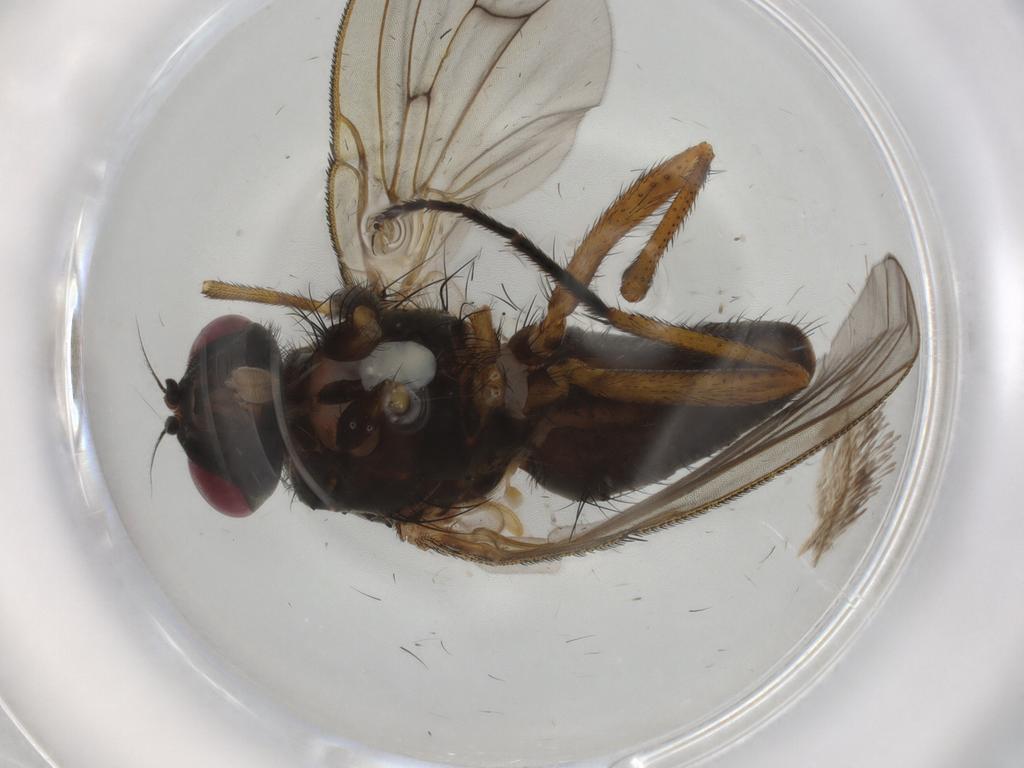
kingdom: Animalia
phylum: Arthropoda
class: Insecta
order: Diptera
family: Muscidae
